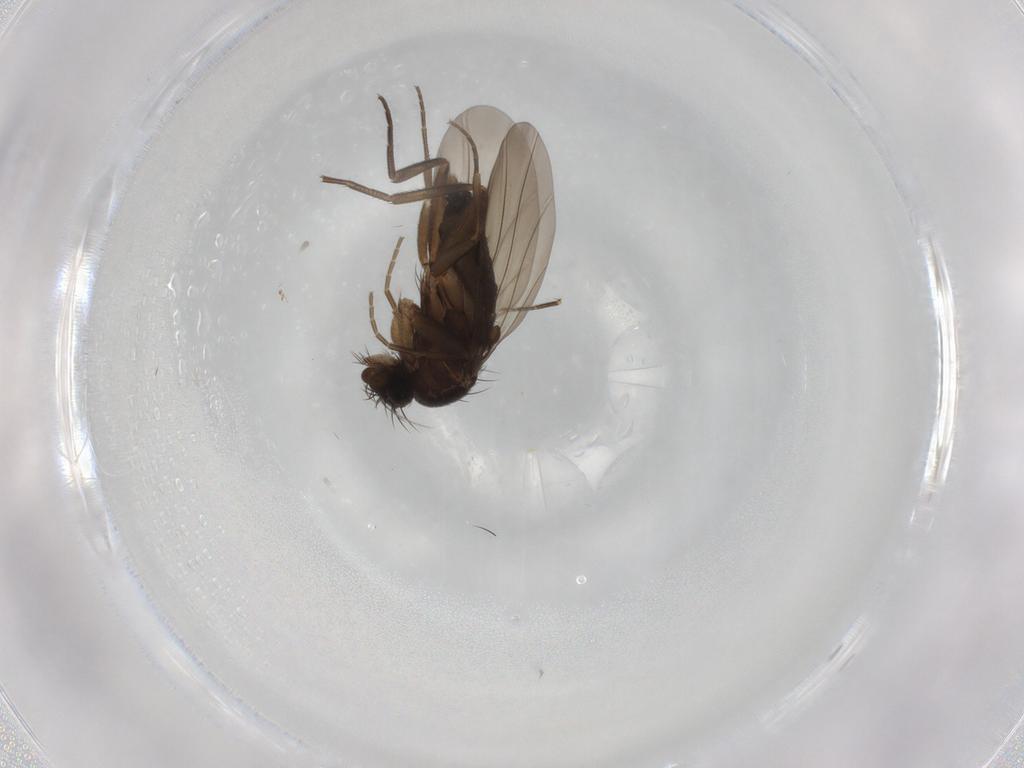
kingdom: Animalia
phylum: Arthropoda
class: Insecta
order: Diptera
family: Phoridae
